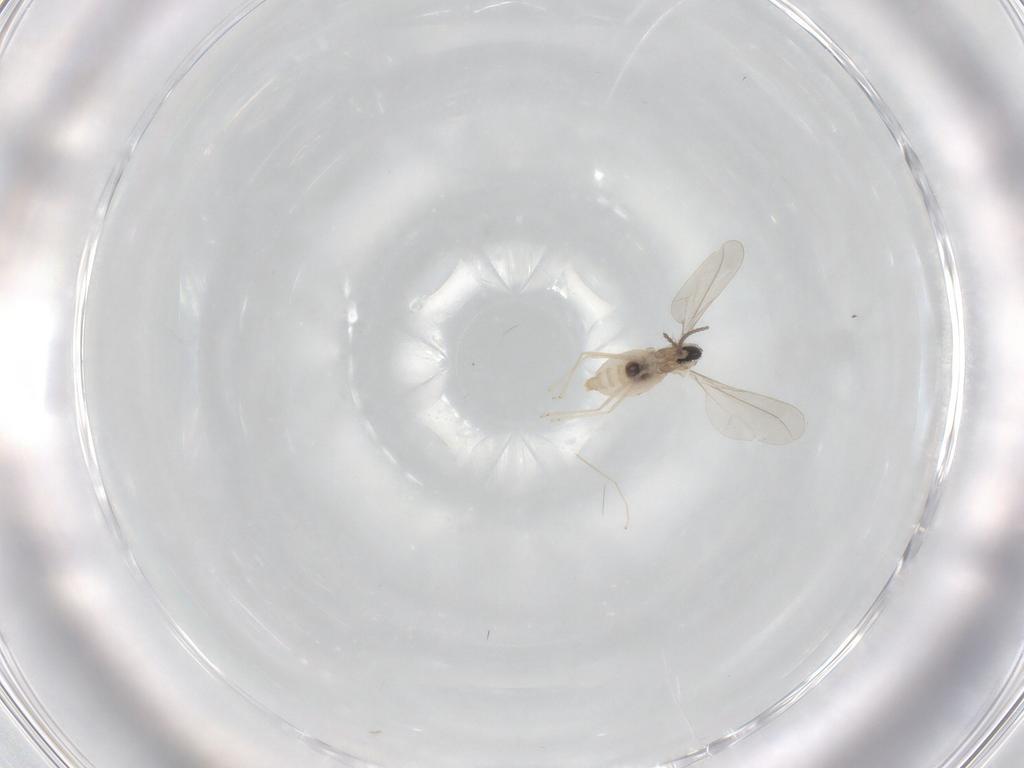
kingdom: Animalia
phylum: Arthropoda
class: Insecta
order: Diptera
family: Cecidomyiidae
